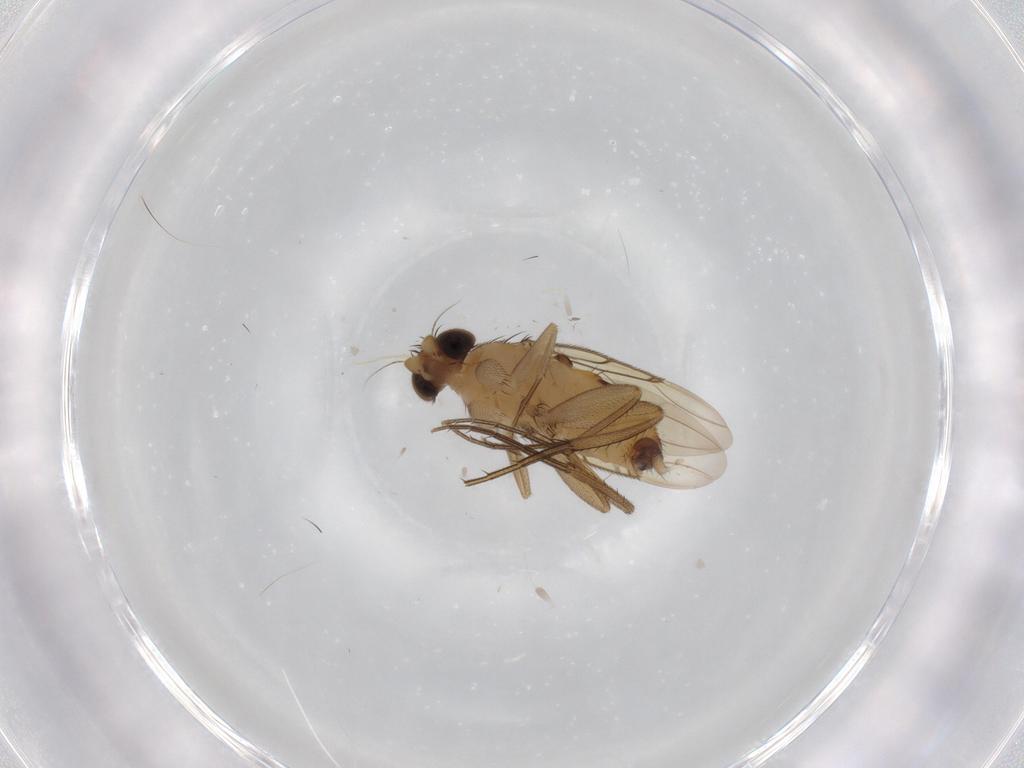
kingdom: Animalia
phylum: Arthropoda
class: Insecta
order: Diptera
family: Phoridae
